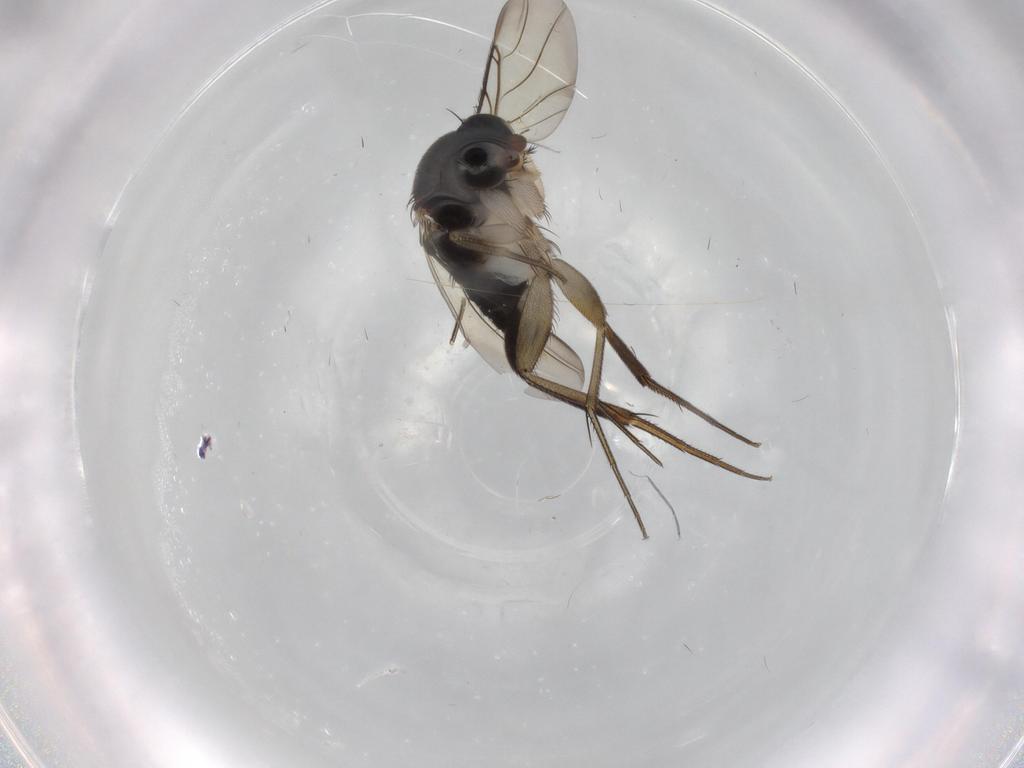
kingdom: Animalia
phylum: Arthropoda
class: Insecta
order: Diptera
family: Phoridae
